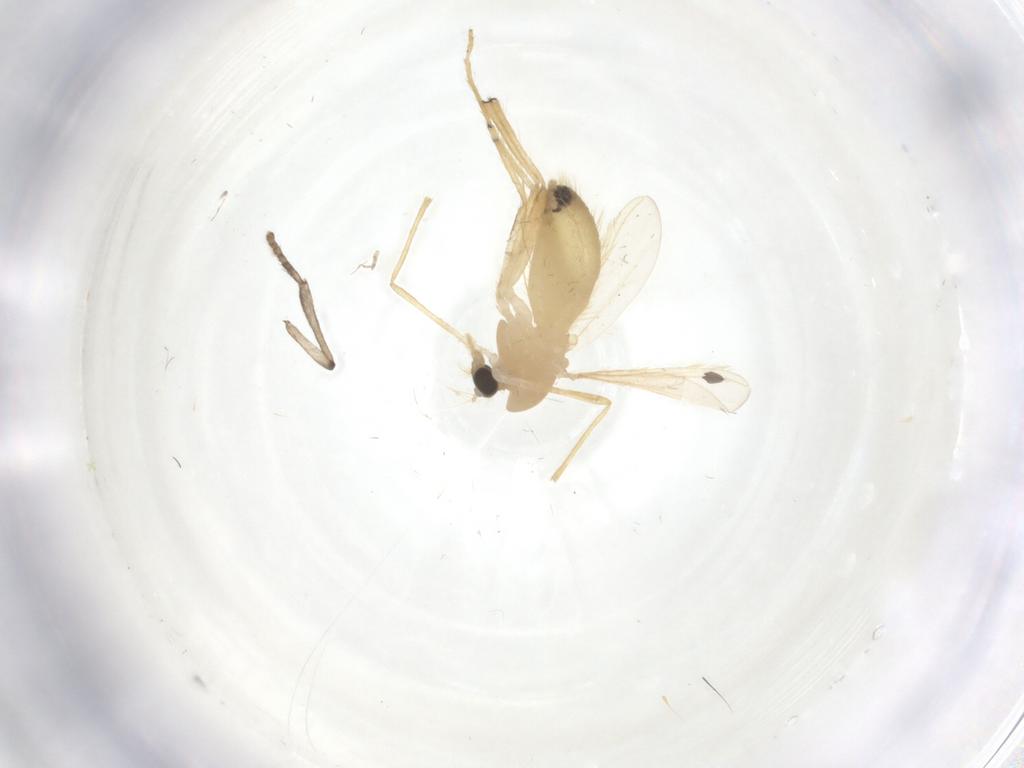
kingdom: Animalia
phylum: Arthropoda
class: Insecta
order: Diptera
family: Chironomidae
